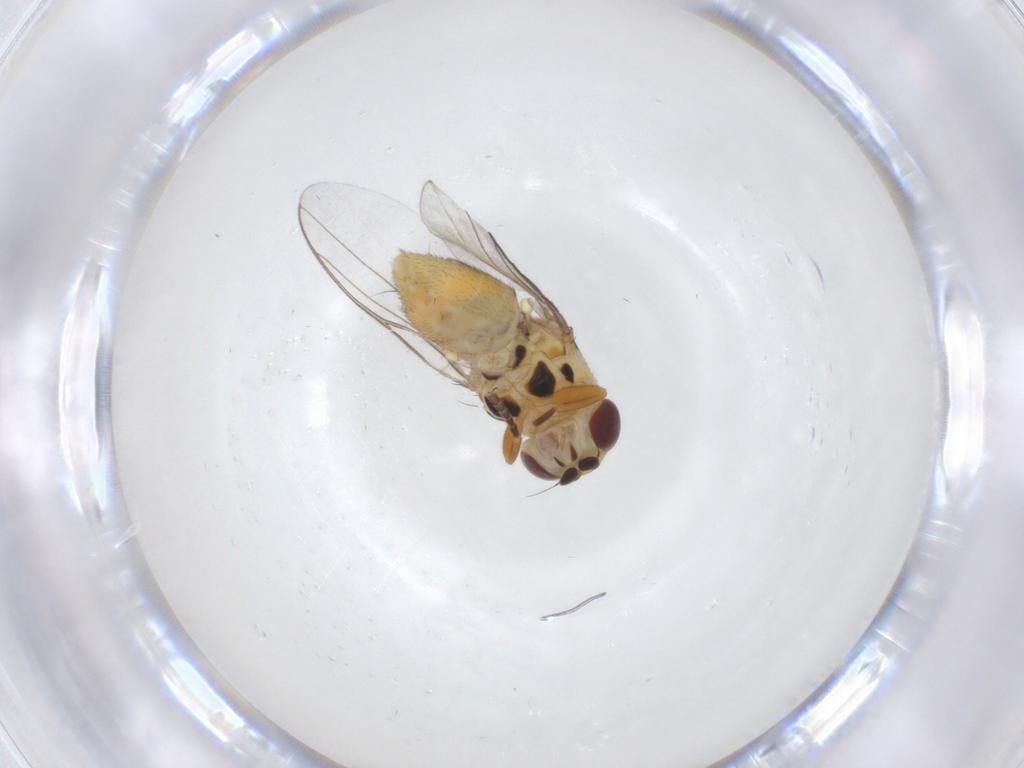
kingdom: Animalia
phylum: Arthropoda
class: Insecta
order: Diptera
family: Chloropidae
